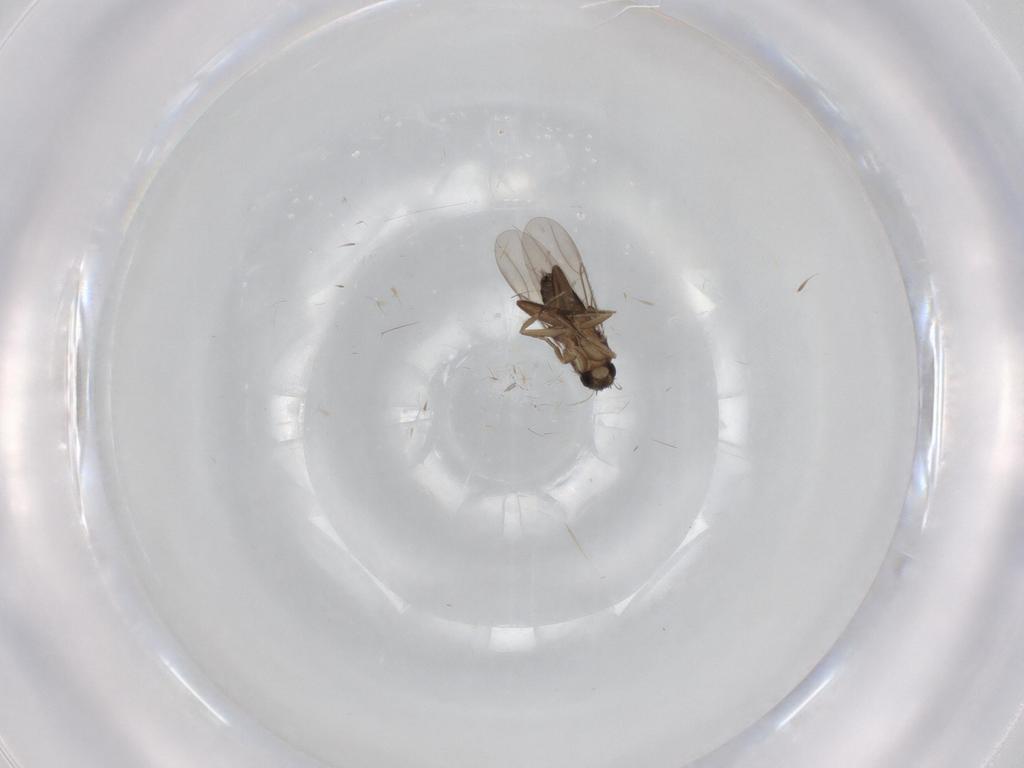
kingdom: Animalia
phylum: Arthropoda
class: Insecta
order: Diptera
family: Phoridae
